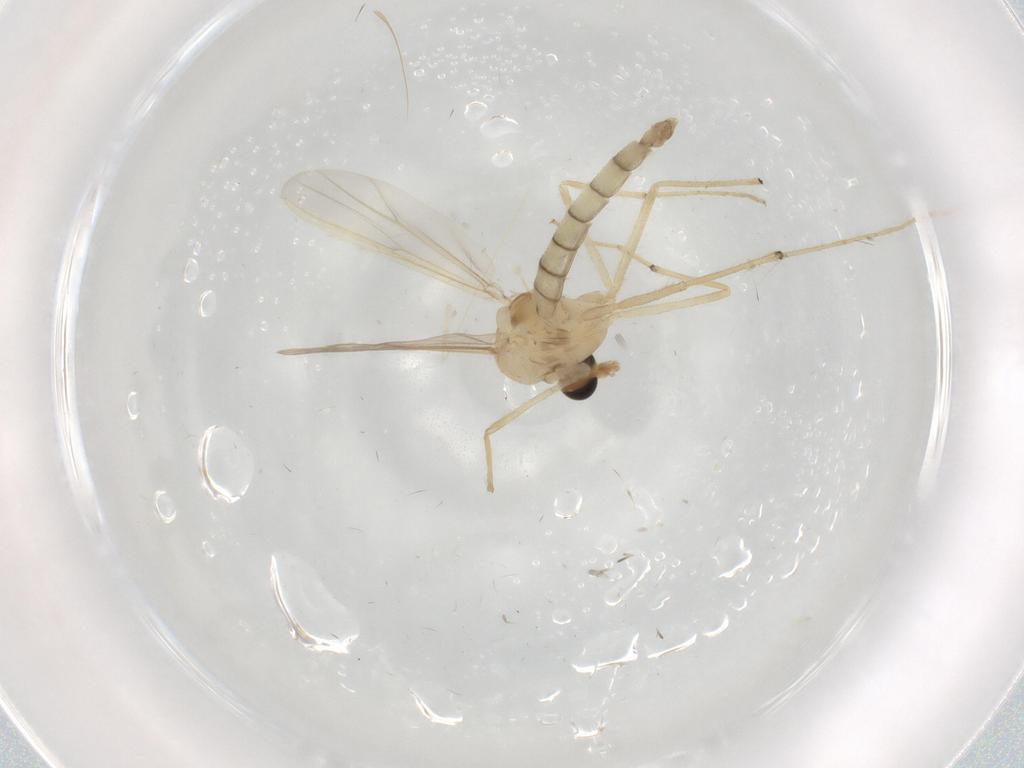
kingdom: Animalia
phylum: Arthropoda
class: Insecta
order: Diptera
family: Chironomidae
